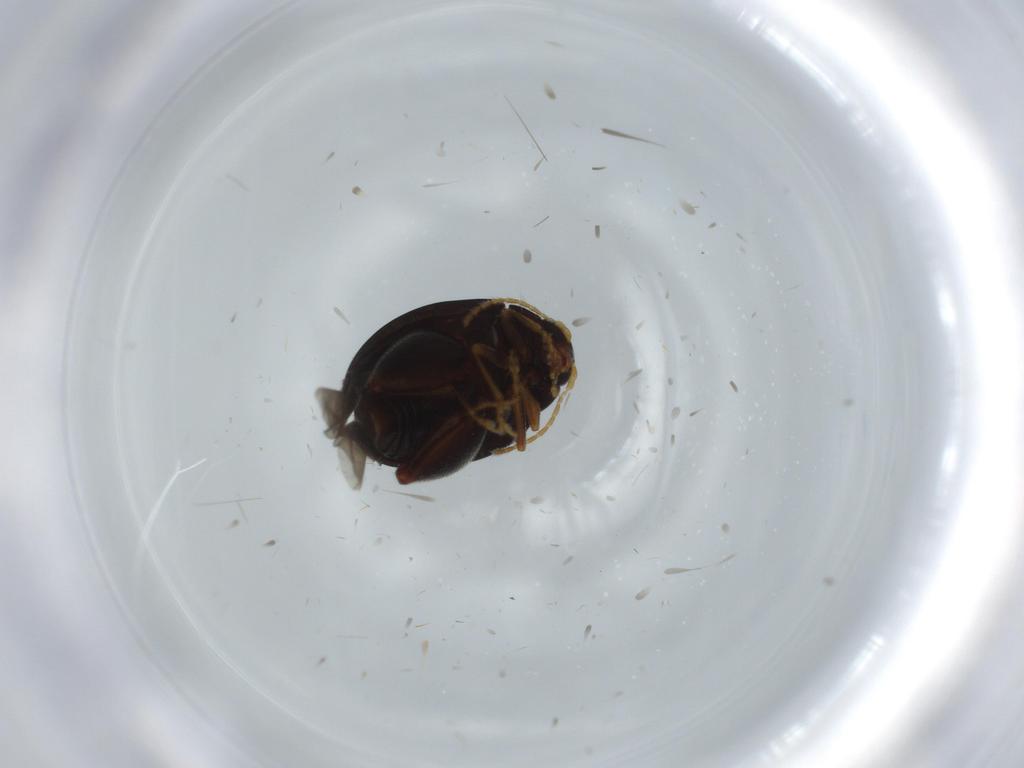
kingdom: Animalia
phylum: Arthropoda
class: Insecta
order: Coleoptera
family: Chrysomelidae
